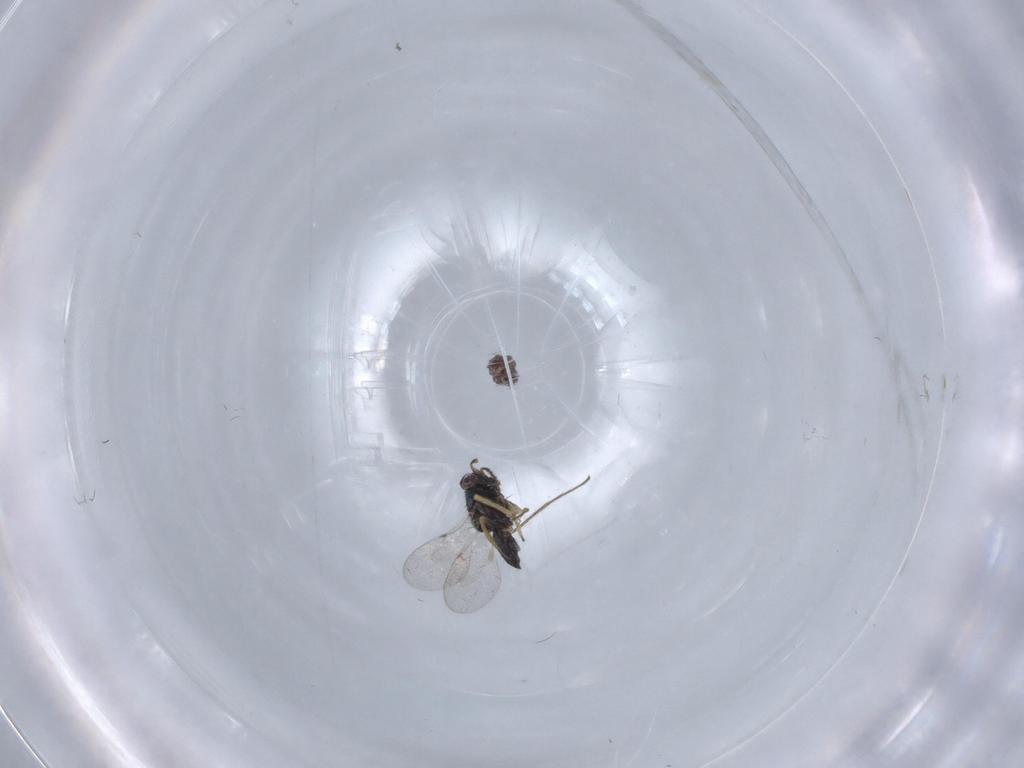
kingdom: Animalia
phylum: Arthropoda
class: Insecta
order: Hymenoptera
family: Mymaridae
